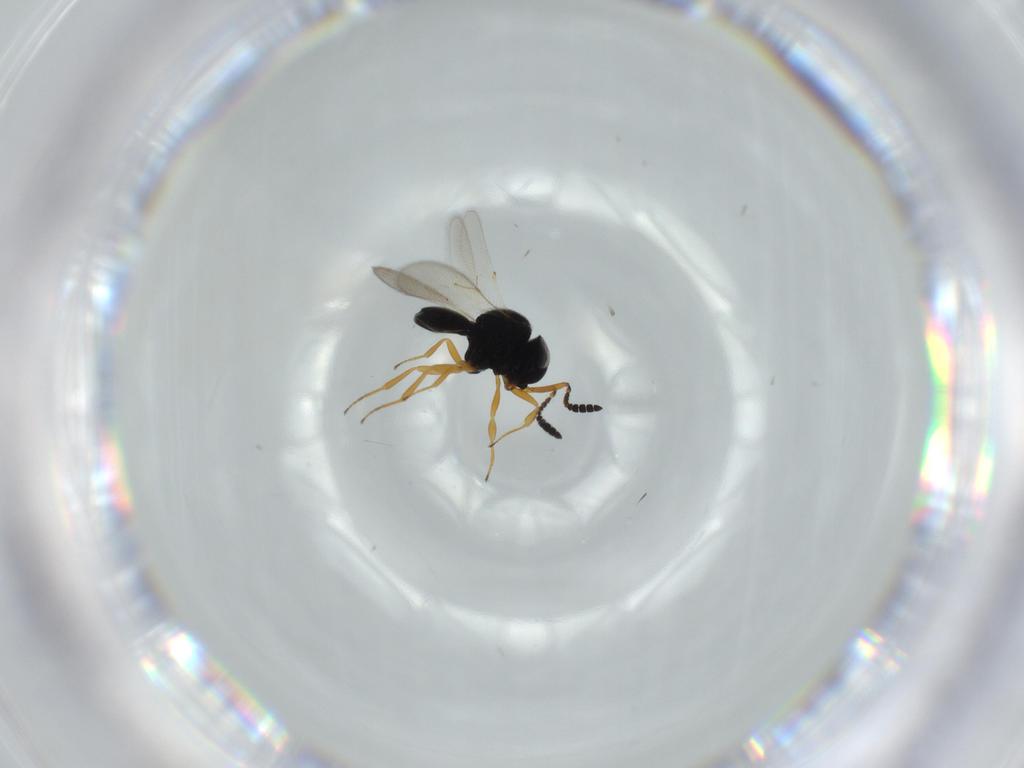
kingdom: Animalia
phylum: Arthropoda
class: Insecta
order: Hymenoptera
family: Scelionidae
